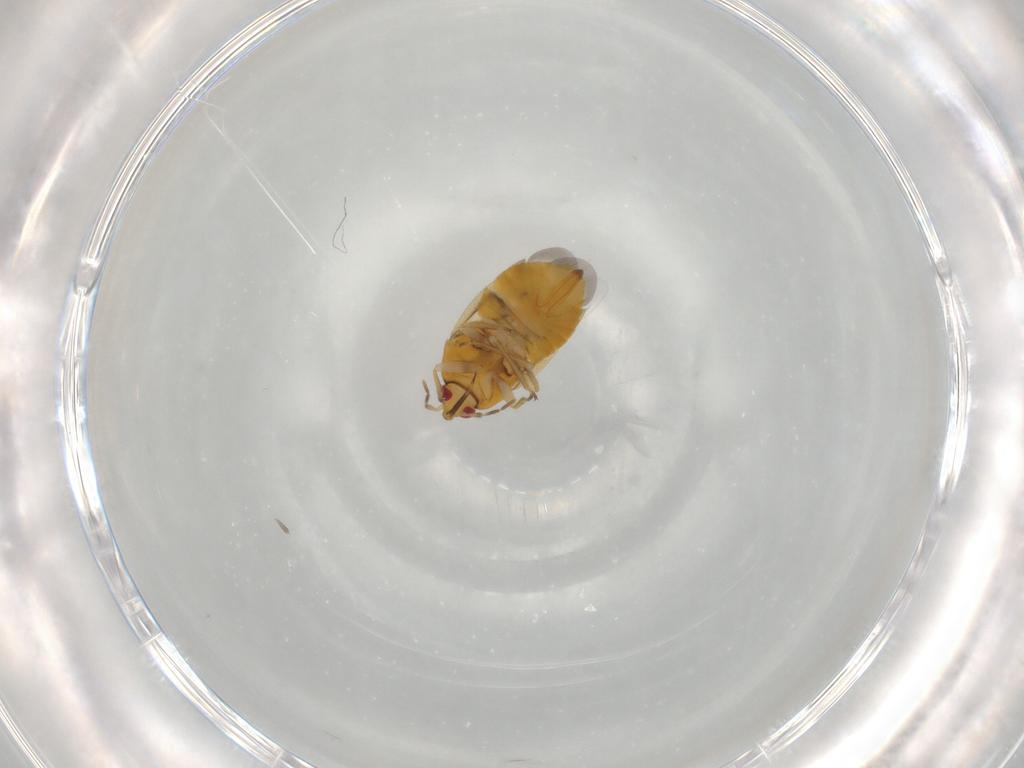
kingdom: Animalia
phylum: Arthropoda
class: Insecta
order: Hemiptera
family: Anthocoridae
